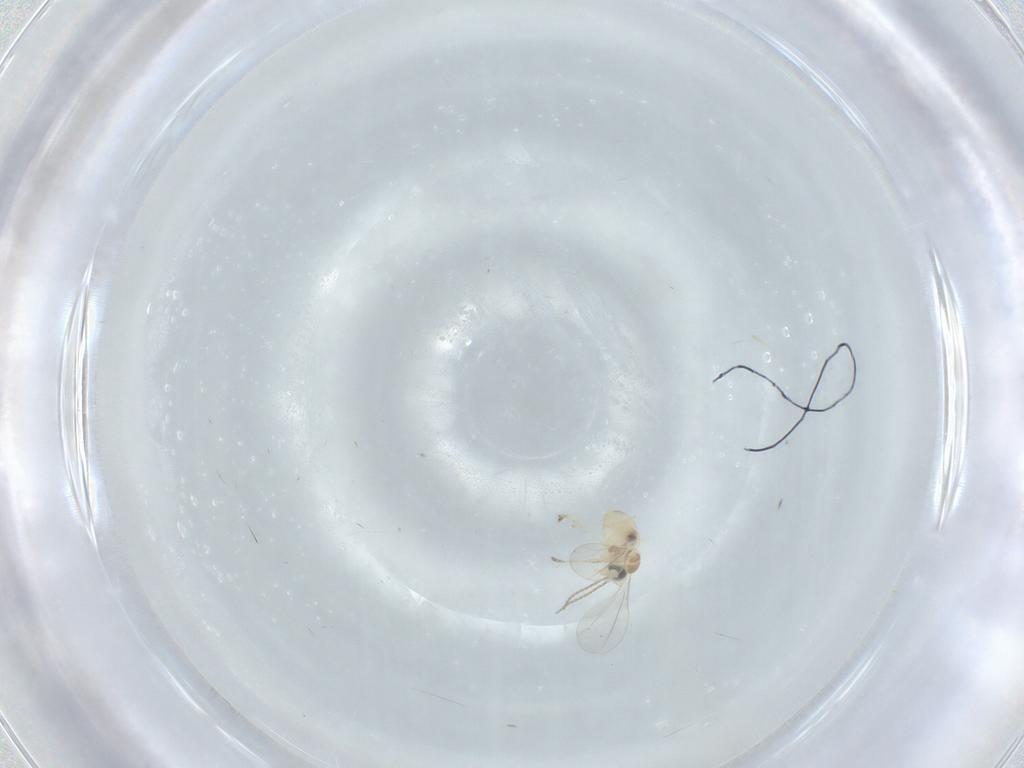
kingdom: Animalia
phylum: Arthropoda
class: Insecta
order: Diptera
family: Cecidomyiidae
